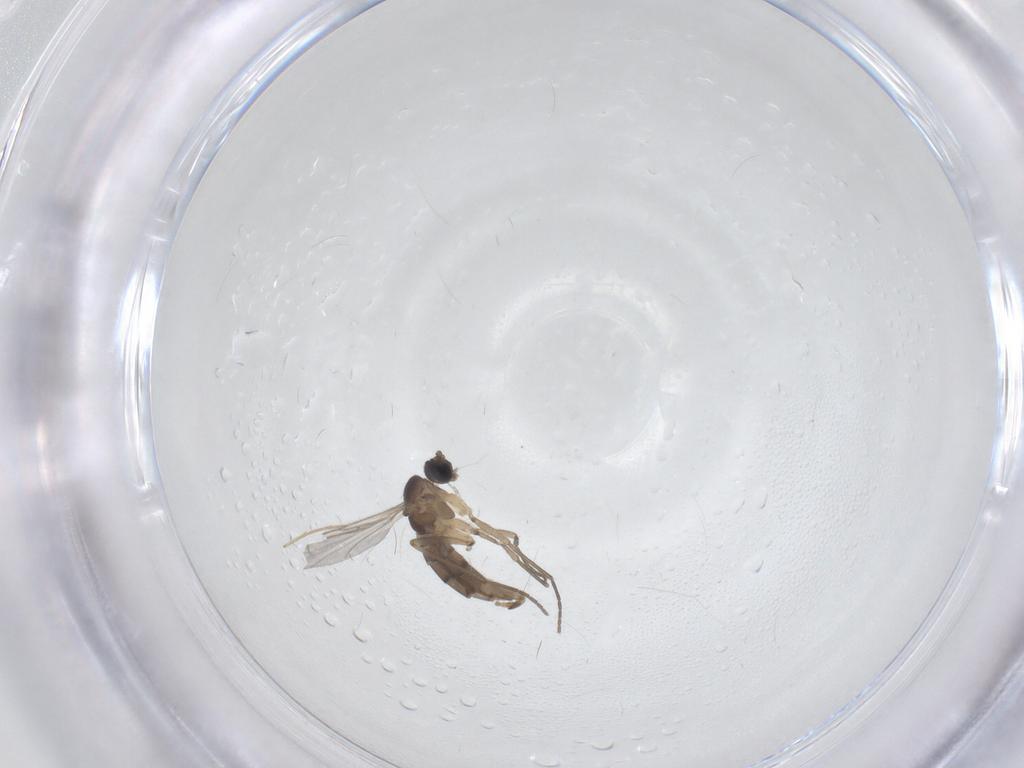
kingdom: Animalia
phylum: Arthropoda
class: Insecta
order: Diptera
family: Sciaridae
